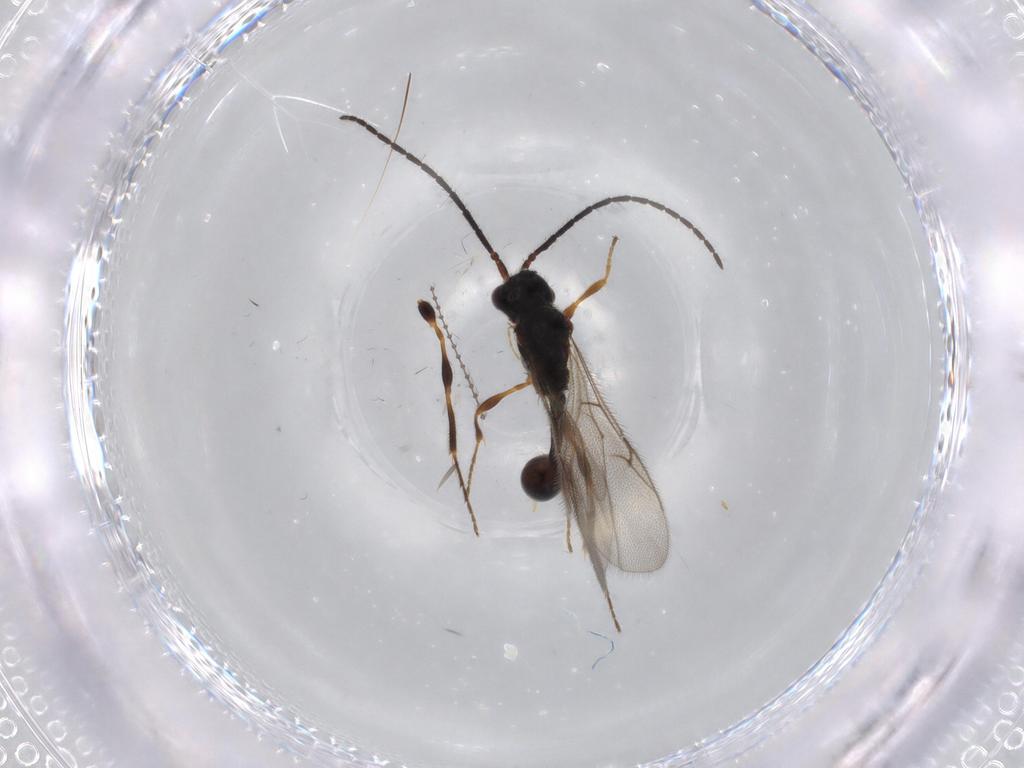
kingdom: Animalia
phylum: Arthropoda
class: Insecta
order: Hymenoptera
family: Diapriidae
